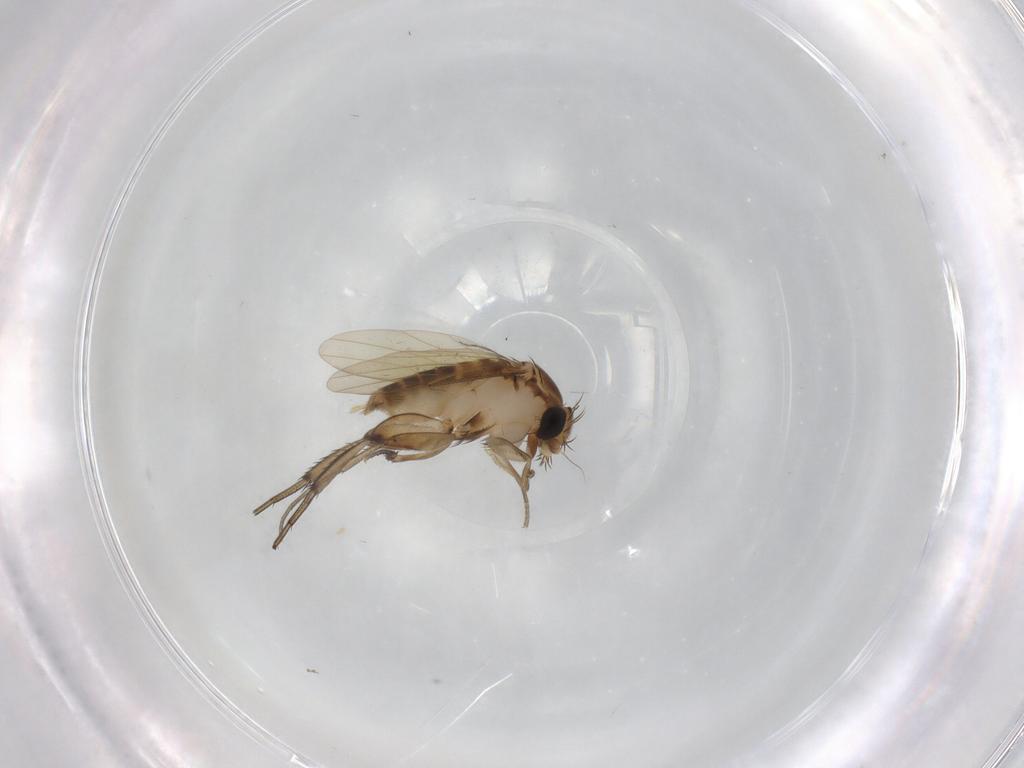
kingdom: Animalia
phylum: Arthropoda
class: Insecta
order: Diptera
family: Phoridae
